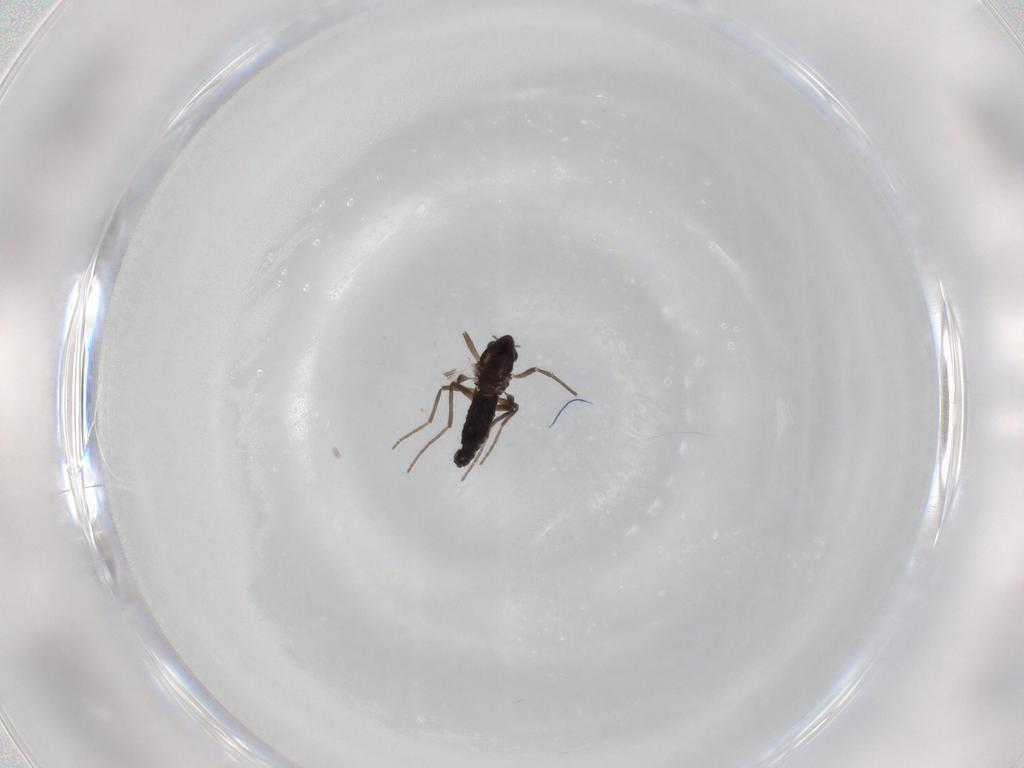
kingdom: Animalia
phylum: Arthropoda
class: Insecta
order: Diptera
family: Chironomidae
